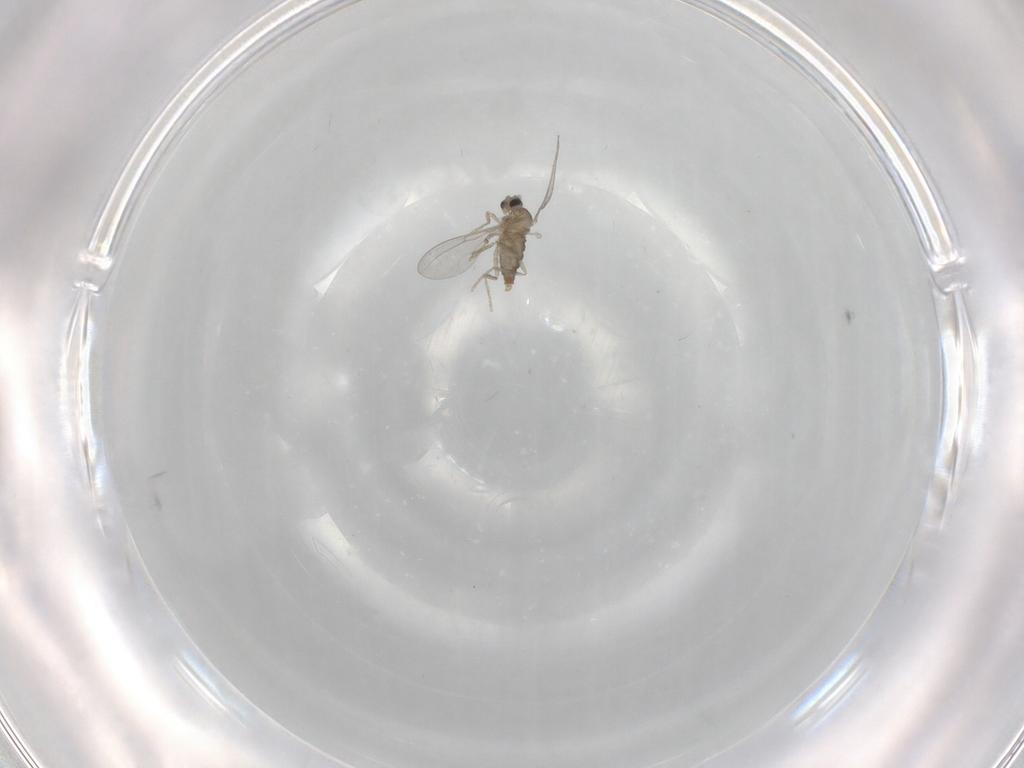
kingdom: Animalia
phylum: Arthropoda
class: Insecta
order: Diptera
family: Cecidomyiidae
